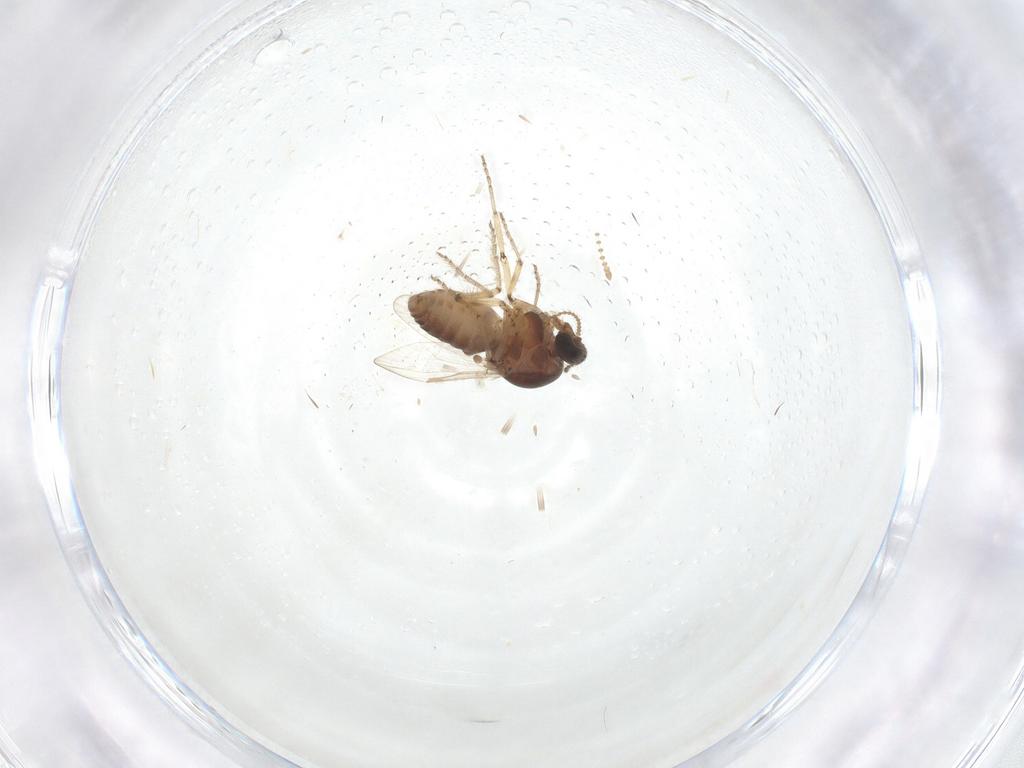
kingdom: Animalia
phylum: Arthropoda
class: Insecta
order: Diptera
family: Ceratopogonidae
